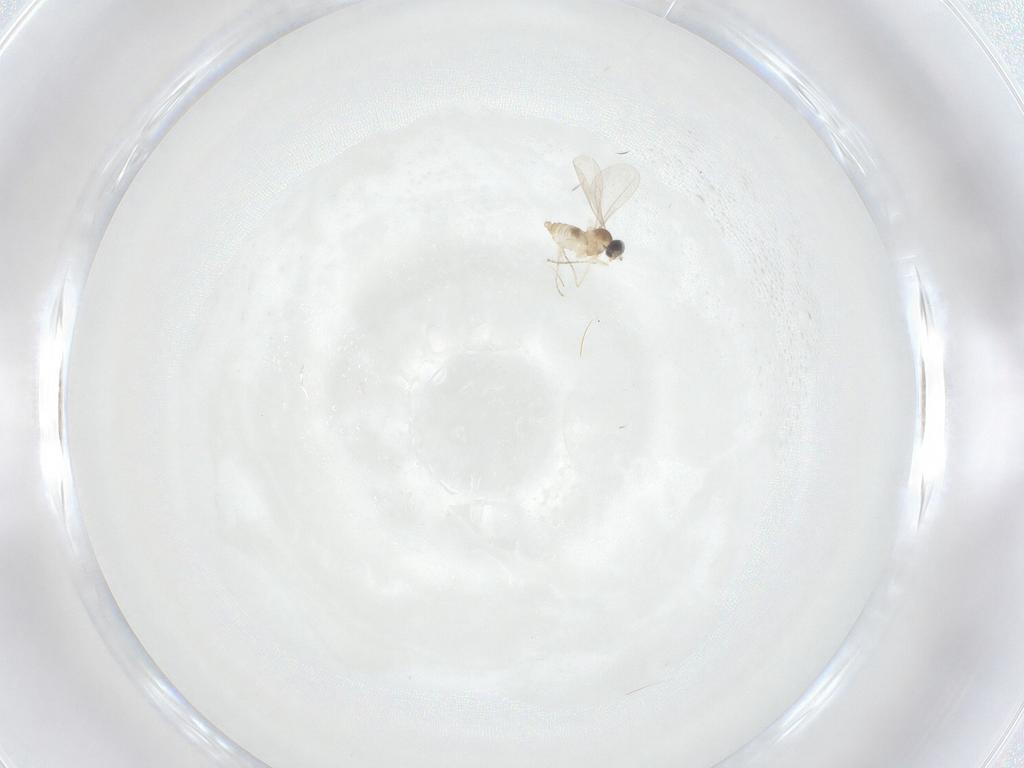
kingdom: Animalia
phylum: Arthropoda
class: Insecta
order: Diptera
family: Cecidomyiidae
